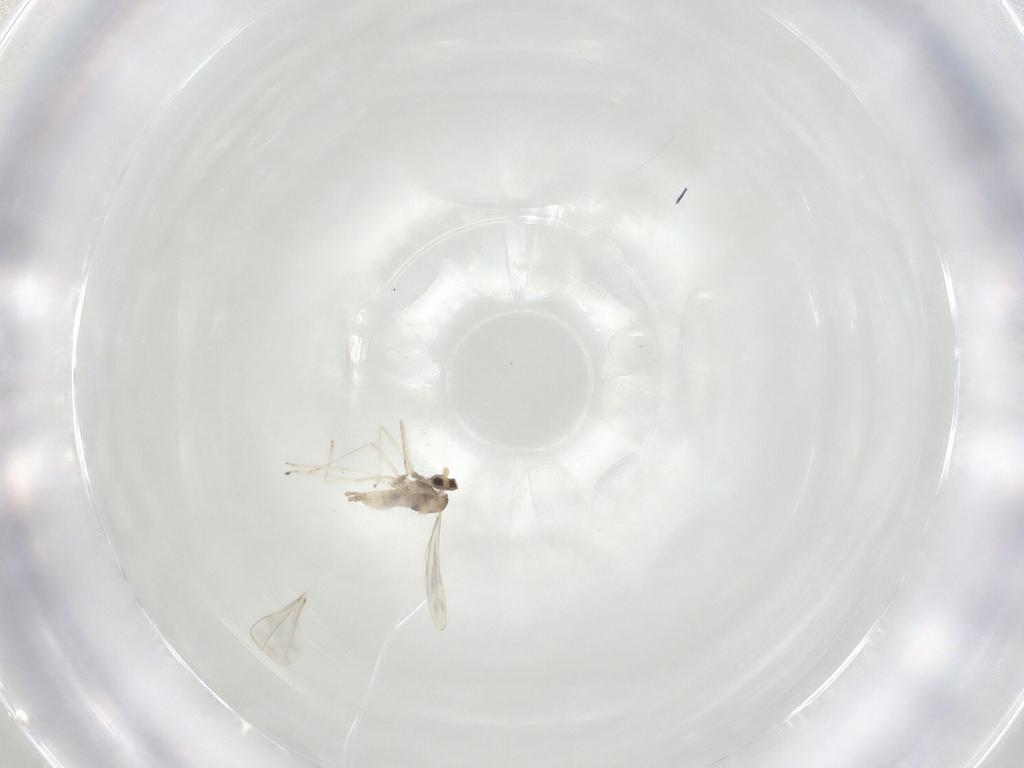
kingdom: Animalia
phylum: Arthropoda
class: Insecta
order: Diptera
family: Cecidomyiidae
